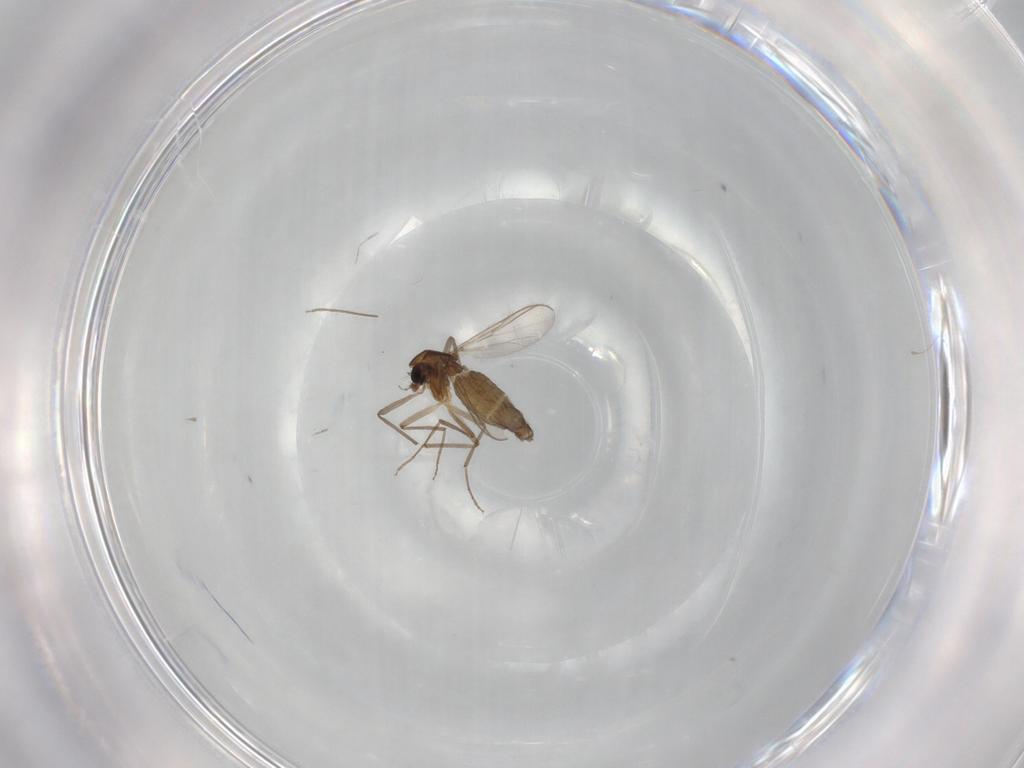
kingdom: Animalia
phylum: Arthropoda
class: Insecta
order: Diptera
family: Chironomidae
